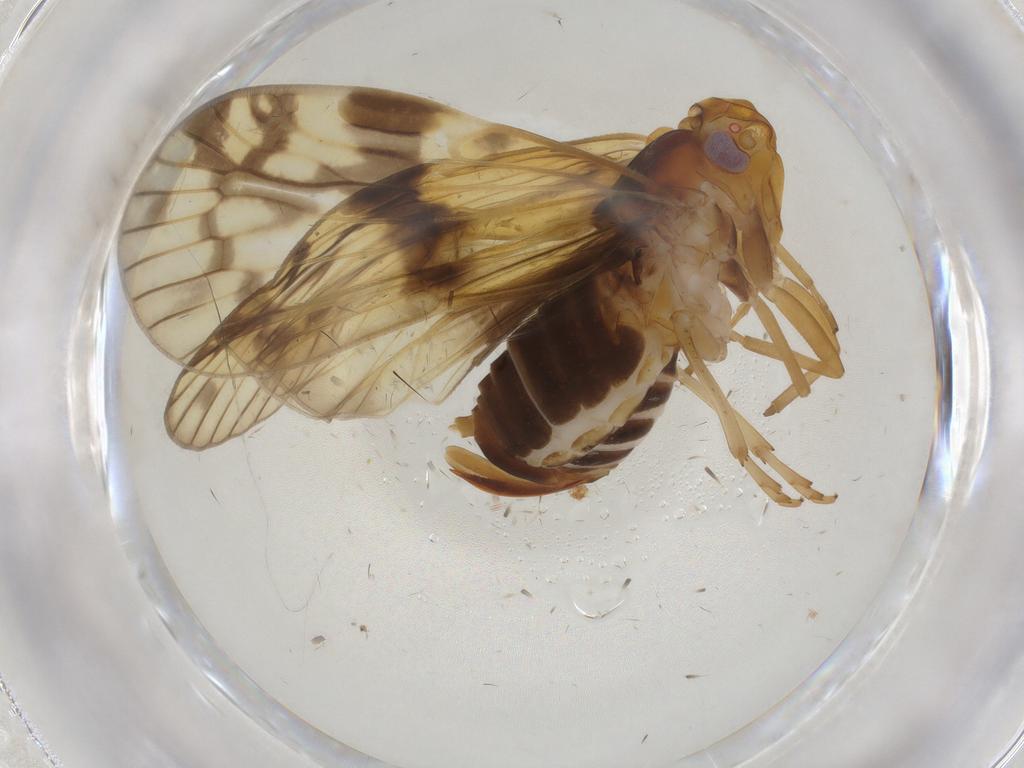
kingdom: Animalia
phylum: Arthropoda
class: Insecta
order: Hemiptera
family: Cixiidae
